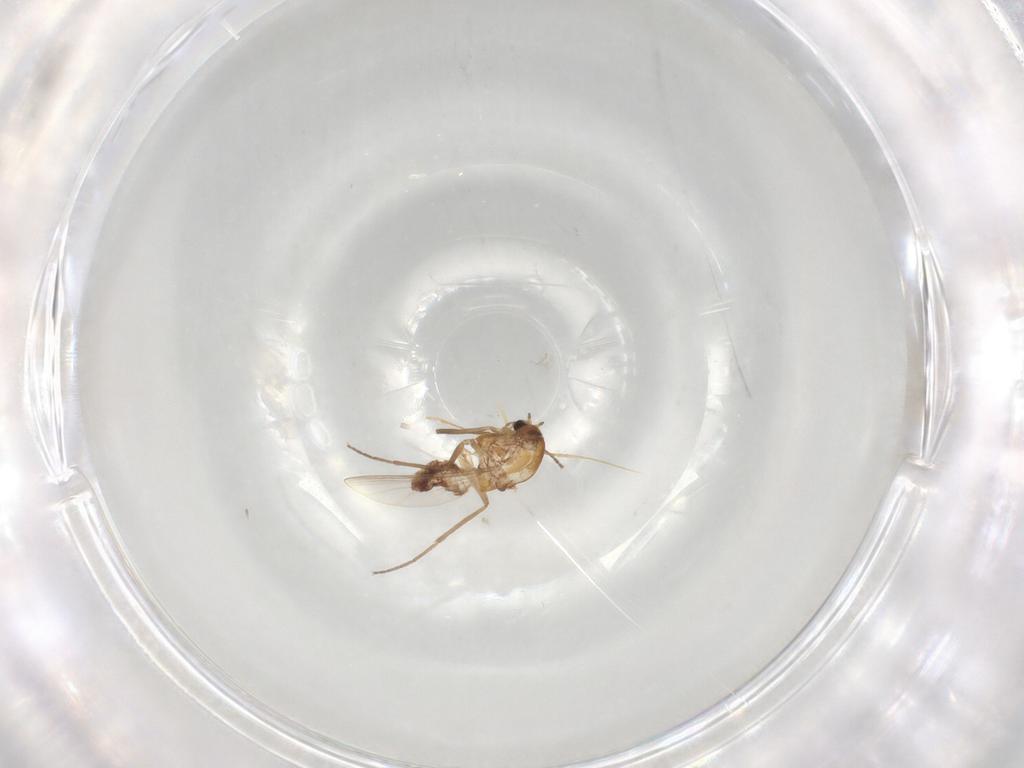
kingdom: Animalia
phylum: Arthropoda
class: Insecta
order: Diptera
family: Chironomidae
